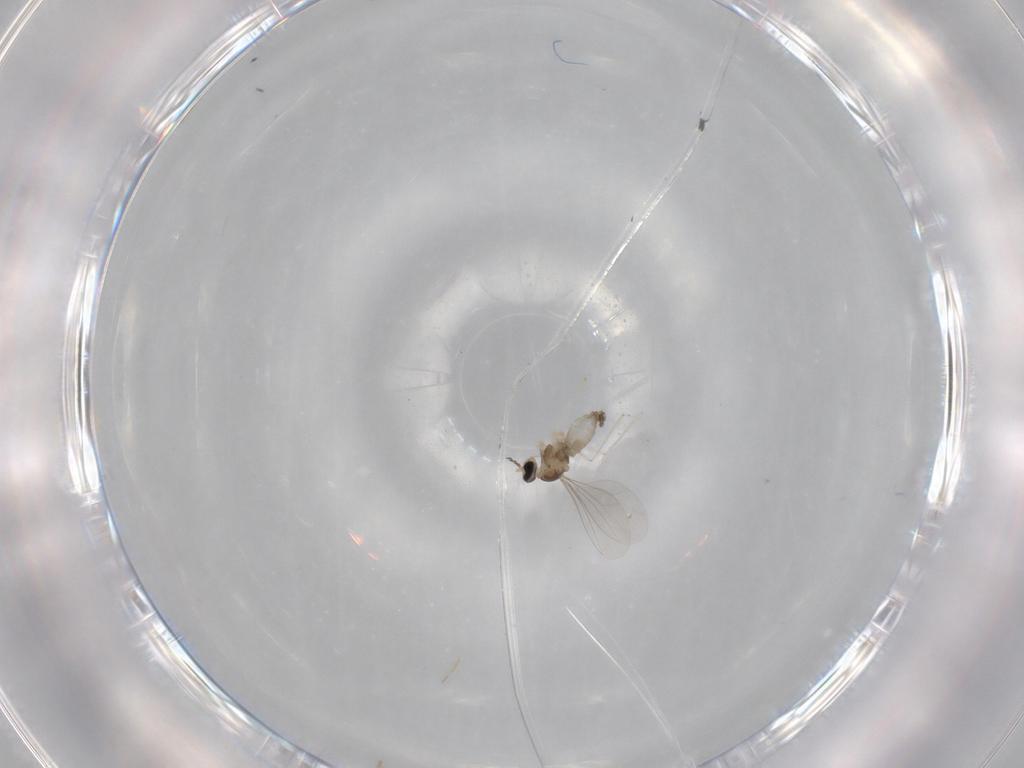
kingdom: Animalia
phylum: Arthropoda
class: Insecta
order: Diptera
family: Cecidomyiidae
